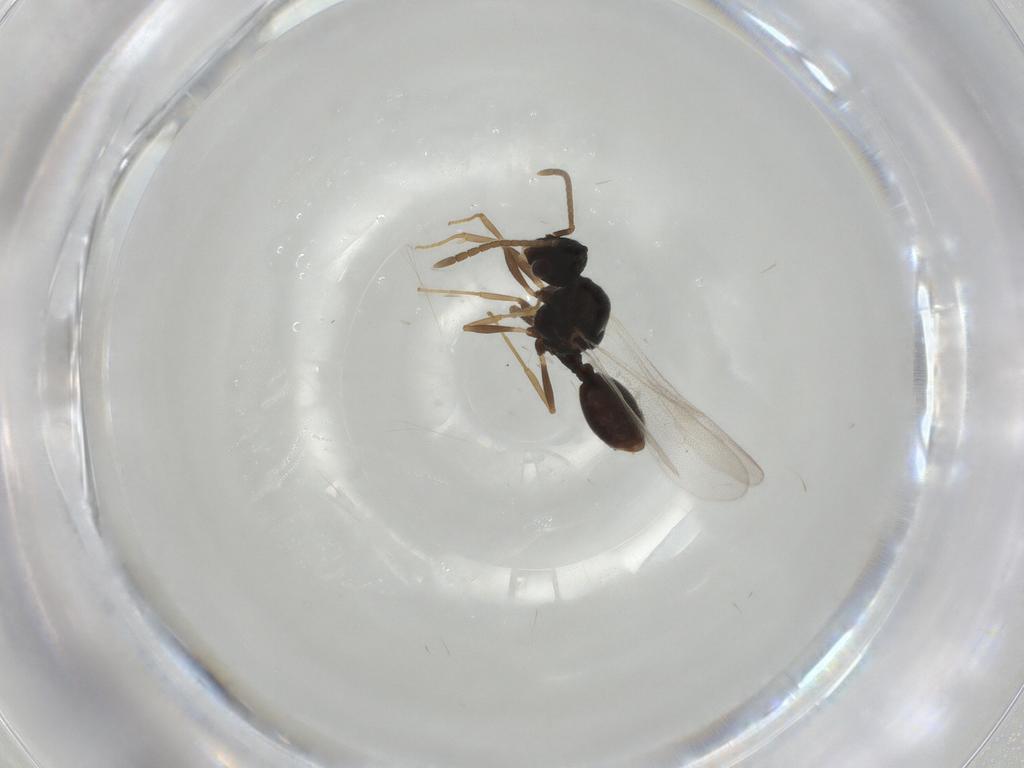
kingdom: Animalia
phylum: Arthropoda
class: Insecta
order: Hymenoptera
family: Formicidae
